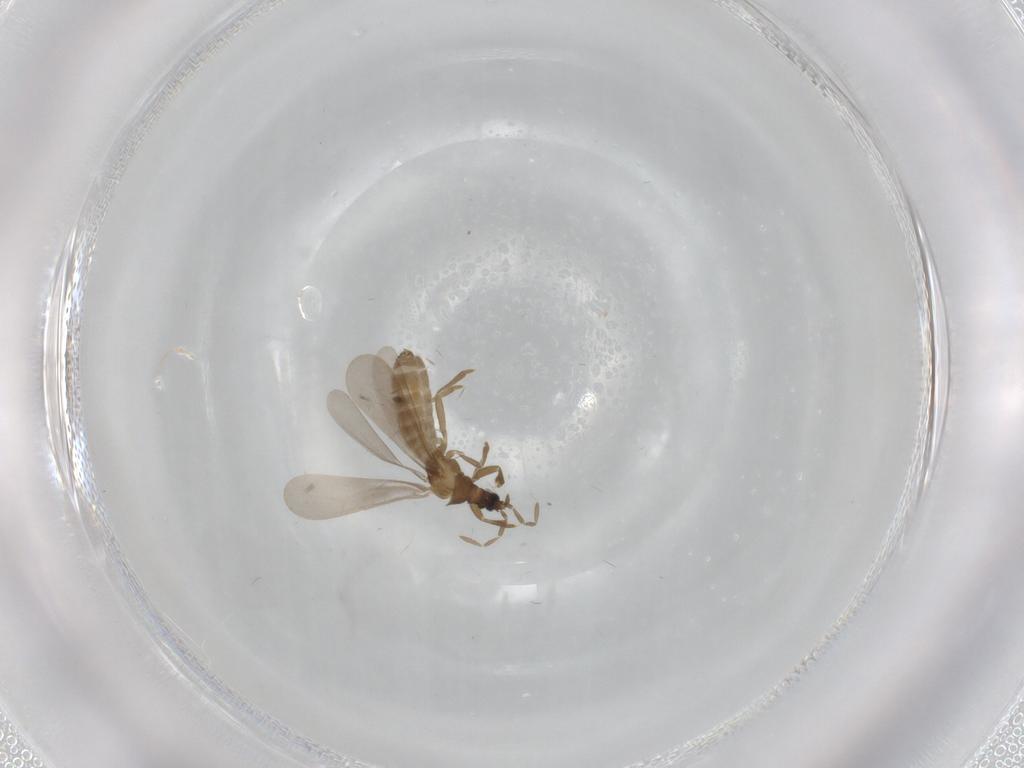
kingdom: Animalia
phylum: Arthropoda
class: Insecta
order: Hemiptera
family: Enicocephalidae
